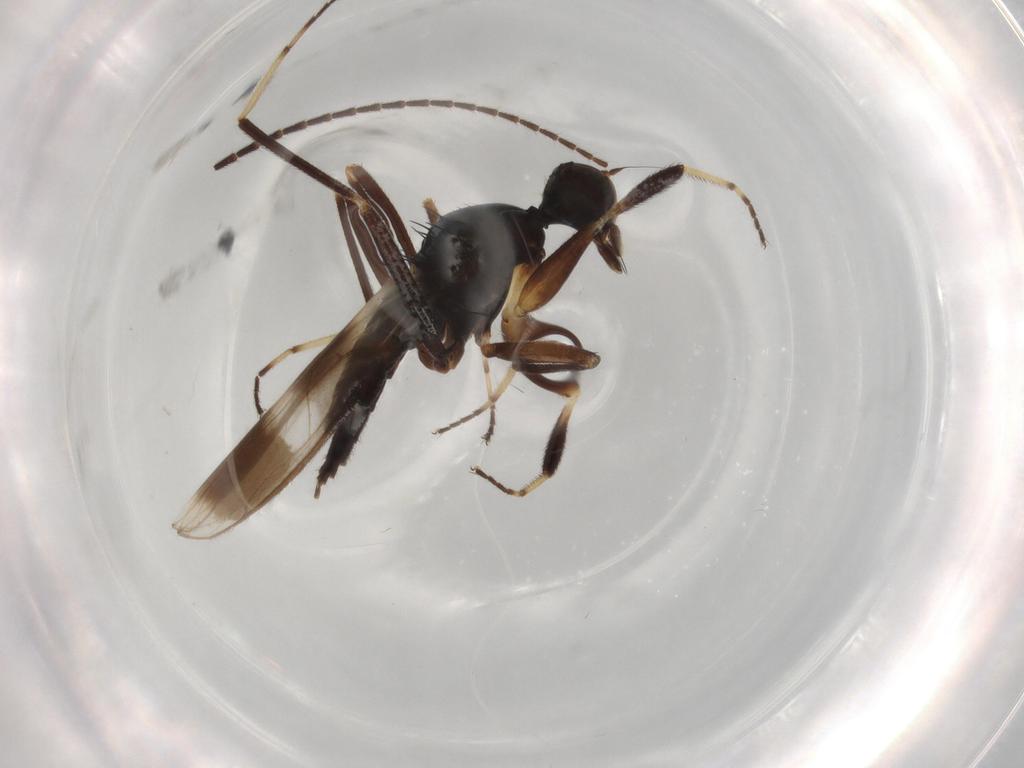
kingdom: Animalia
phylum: Arthropoda
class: Insecta
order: Diptera
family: Hybotidae
